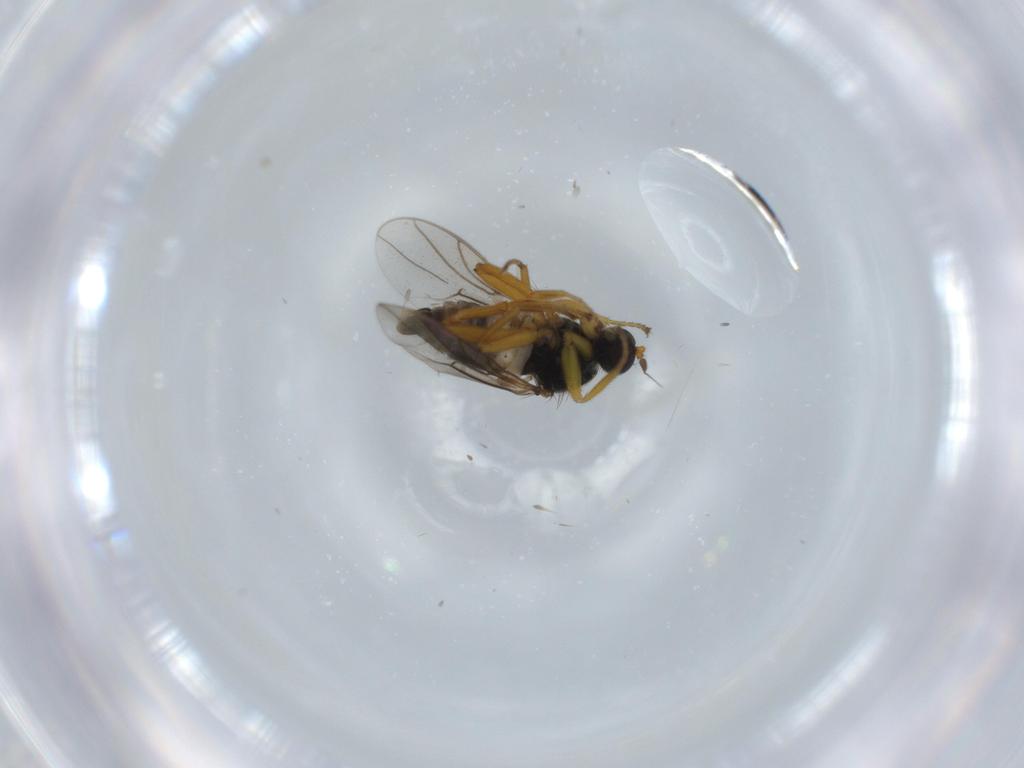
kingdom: Animalia
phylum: Arthropoda
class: Insecta
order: Diptera
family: Hybotidae
